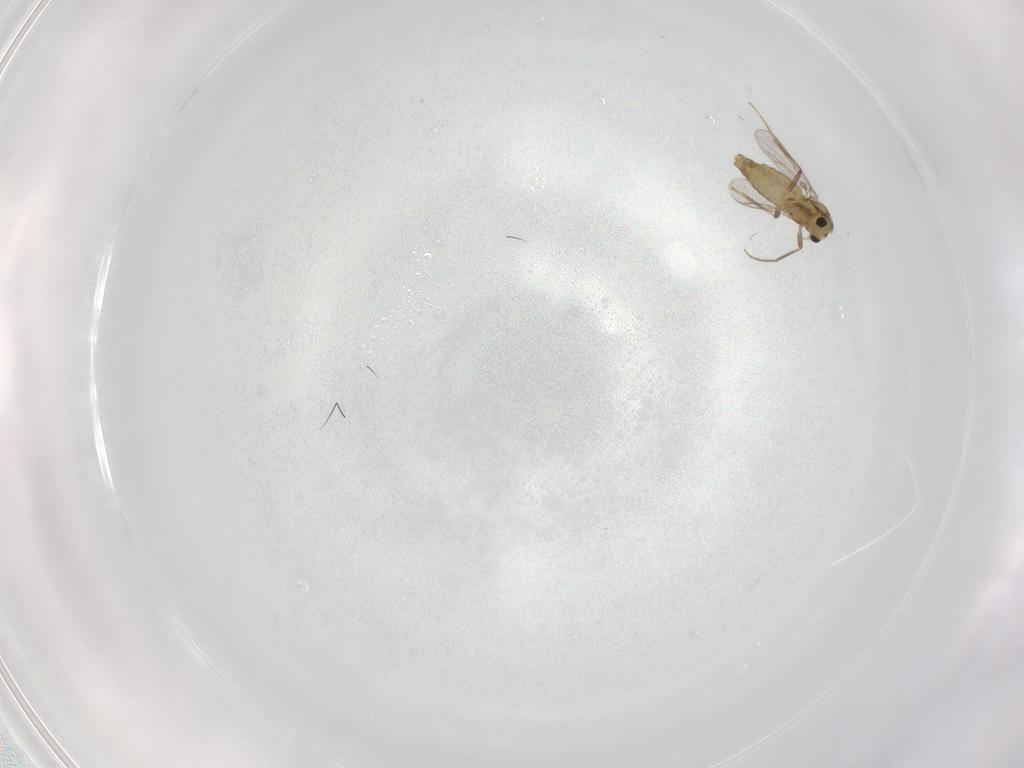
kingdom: Animalia
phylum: Arthropoda
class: Insecta
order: Diptera
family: Chironomidae
